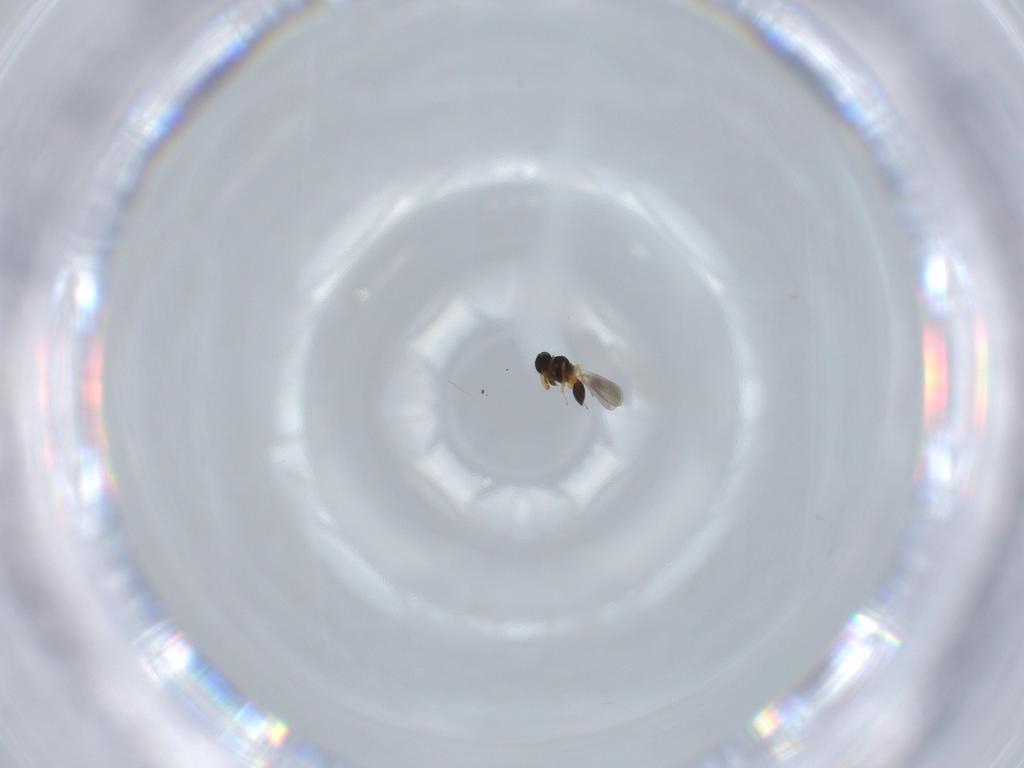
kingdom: Animalia
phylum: Arthropoda
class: Insecta
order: Hymenoptera
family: Platygastridae
